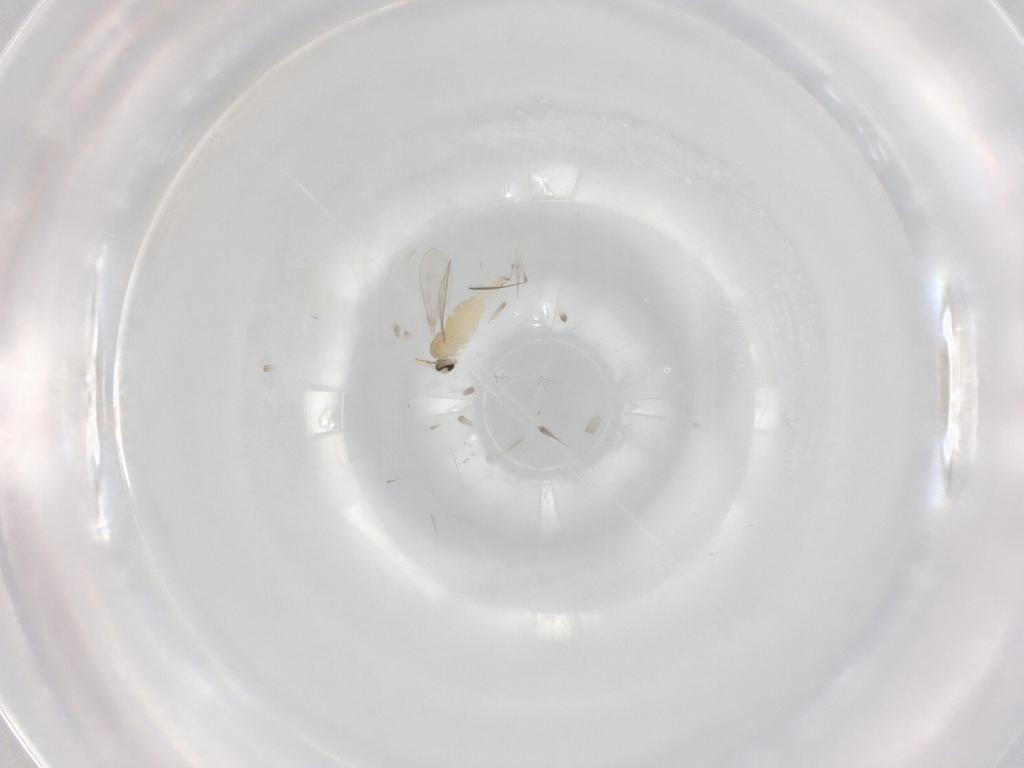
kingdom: Animalia
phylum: Arthropoda
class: Insecta
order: Diptera
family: Cecidomyiidae
